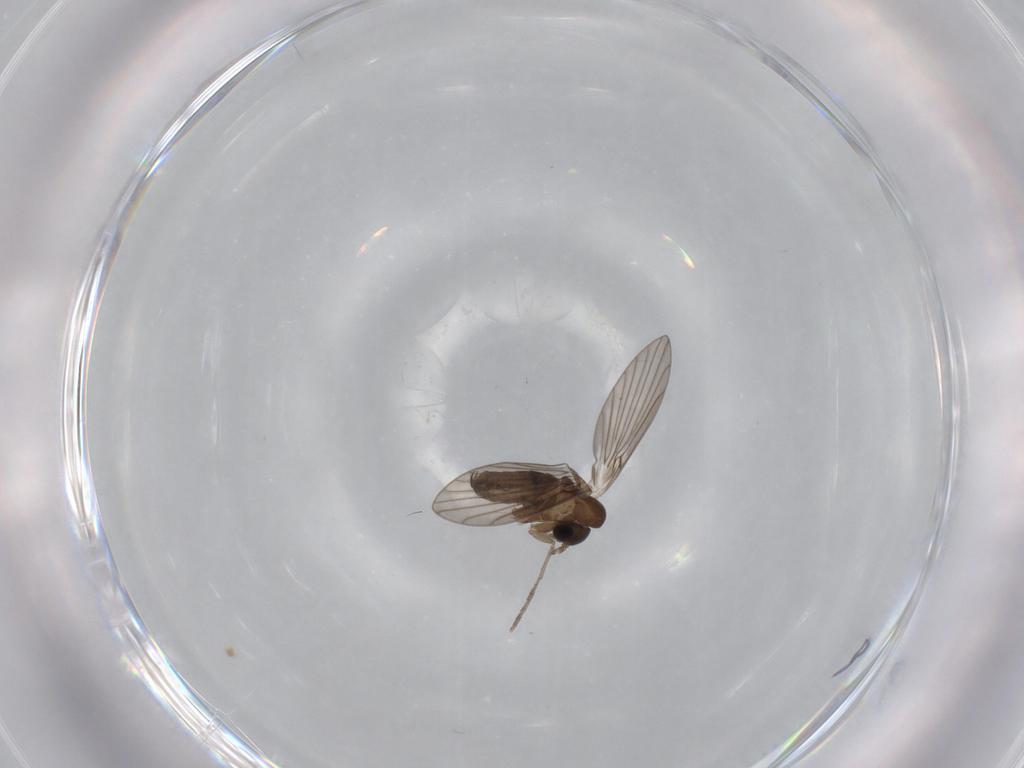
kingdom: Animalia
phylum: Arthropoda
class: Insecta
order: Diptera
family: Psychodidae
